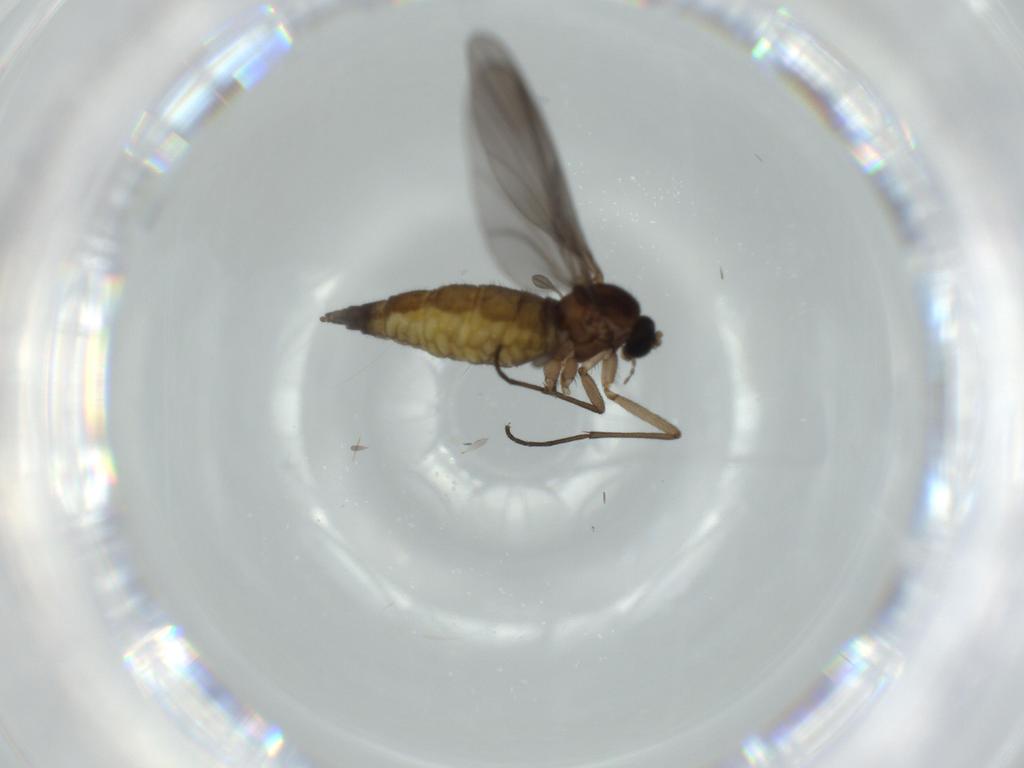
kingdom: Animalia
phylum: Arthropoda
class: Insecta
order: Diptera
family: Sciaridae
